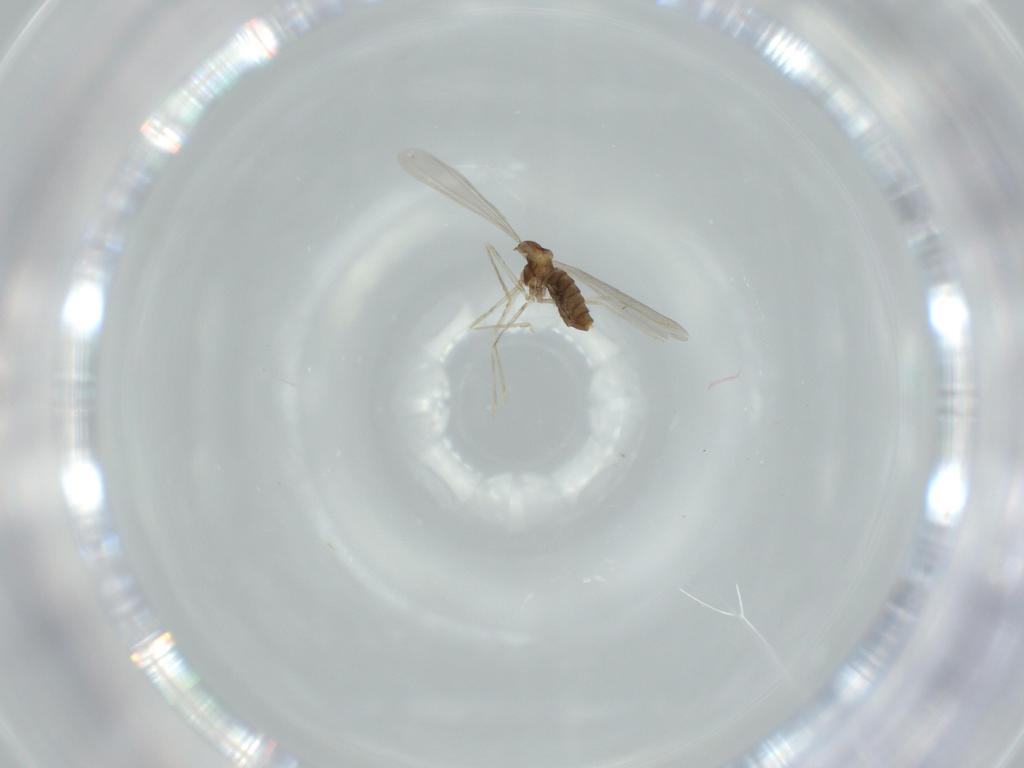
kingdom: Animalia
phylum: Arthropoda
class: Insecta
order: Diptera
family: Cecidomyiidae
